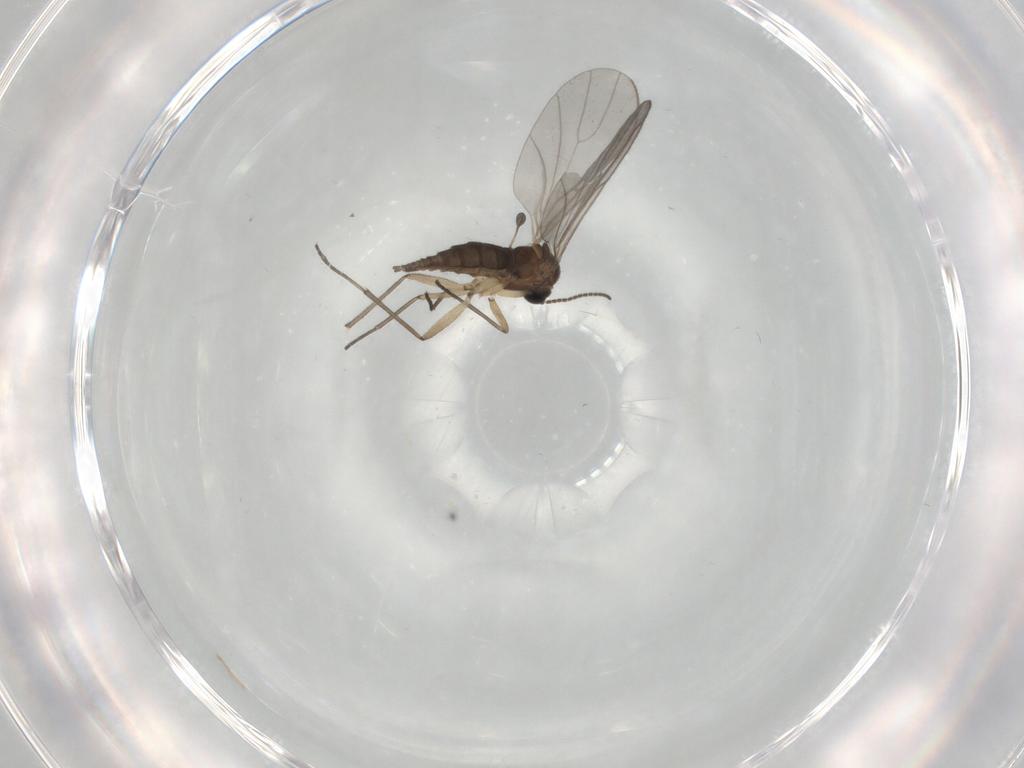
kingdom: Animalia
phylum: Arthropoda
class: Insecta
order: Diptera
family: Sciaridae
